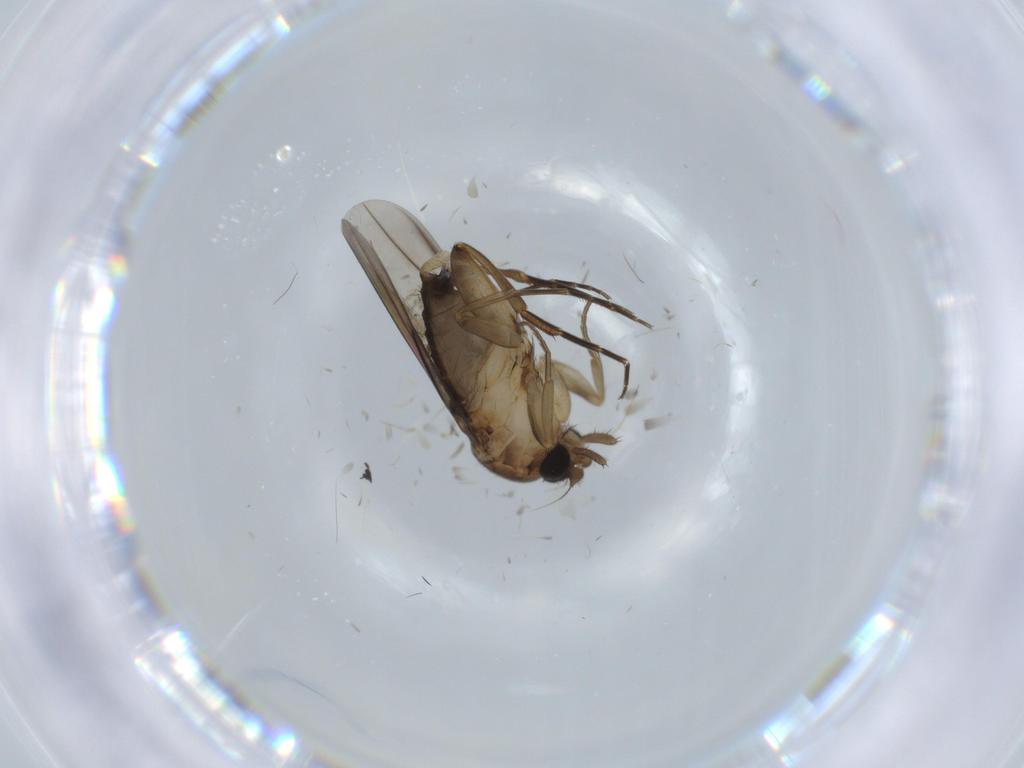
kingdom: Animalia
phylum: Arthropoda
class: Insecta
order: Diptera
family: Phoridae
